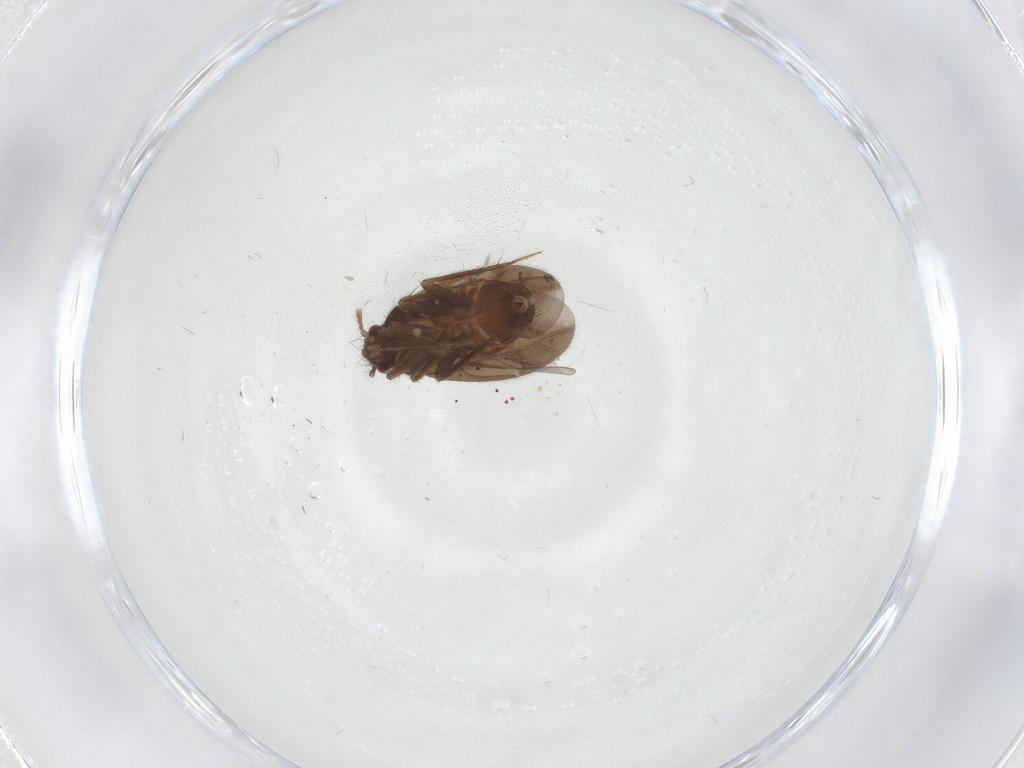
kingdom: Animalia
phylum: Arthropoda
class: Insecta
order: Hemiptera
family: Ceratocombidae
